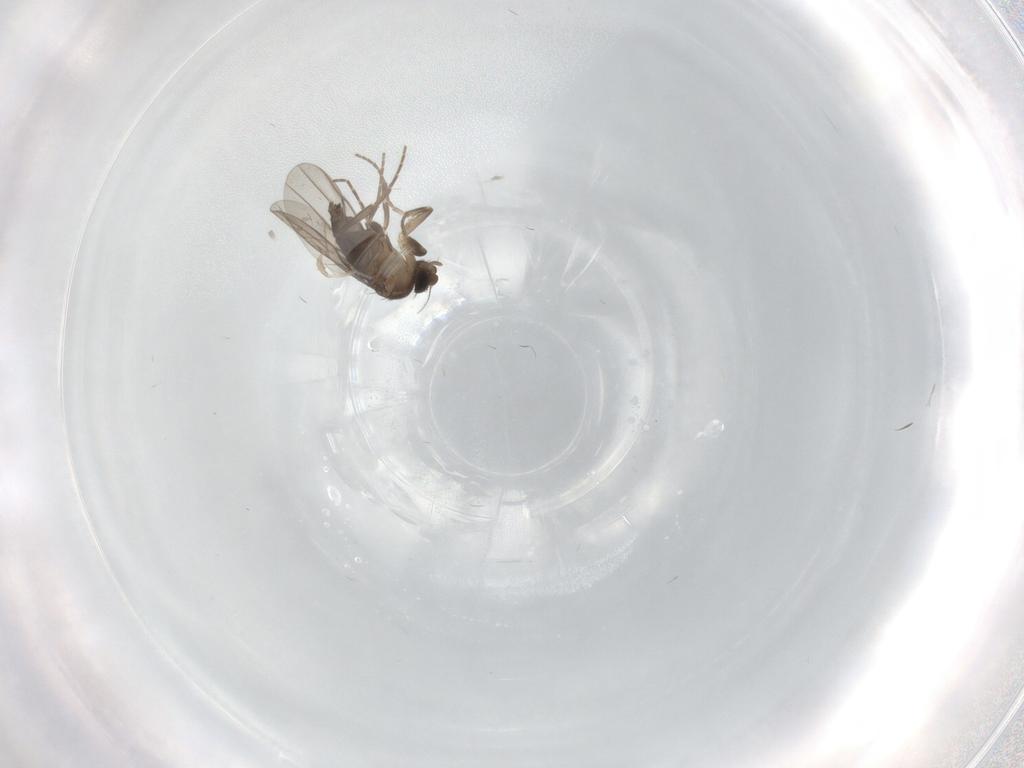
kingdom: Animalia
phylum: Arthropoda
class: Insecta
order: Diptera
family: Cecidomyiidae
